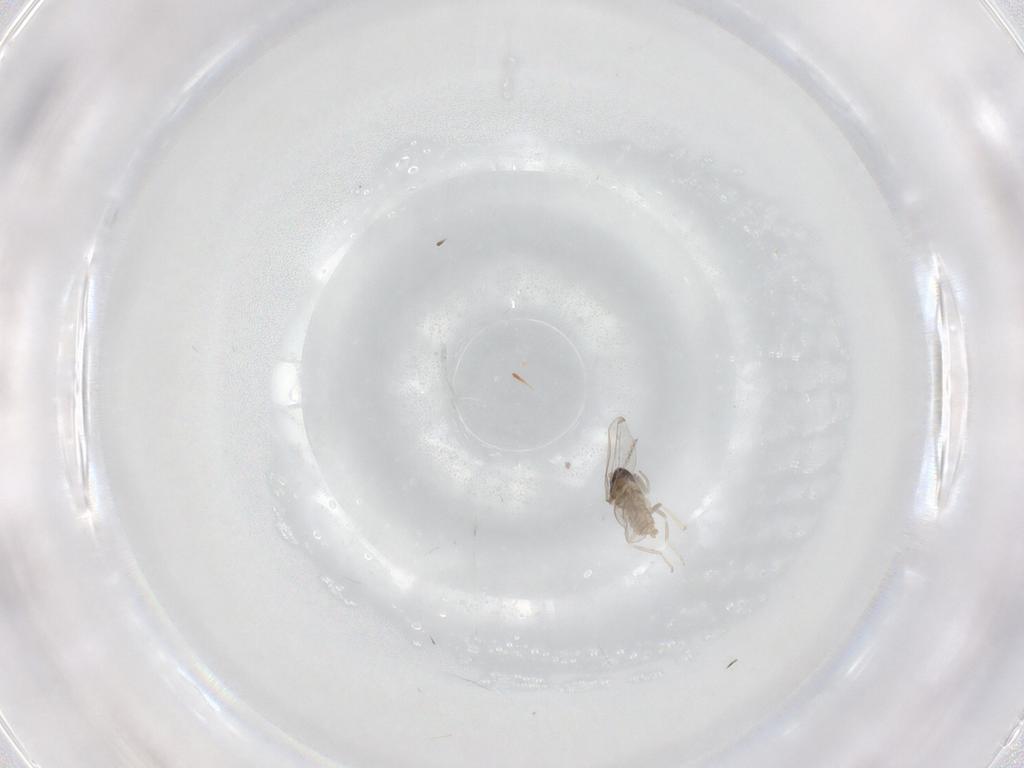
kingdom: Animalia
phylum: Arthropoda
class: Insecta
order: Diptera
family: Cecidomyiidae
